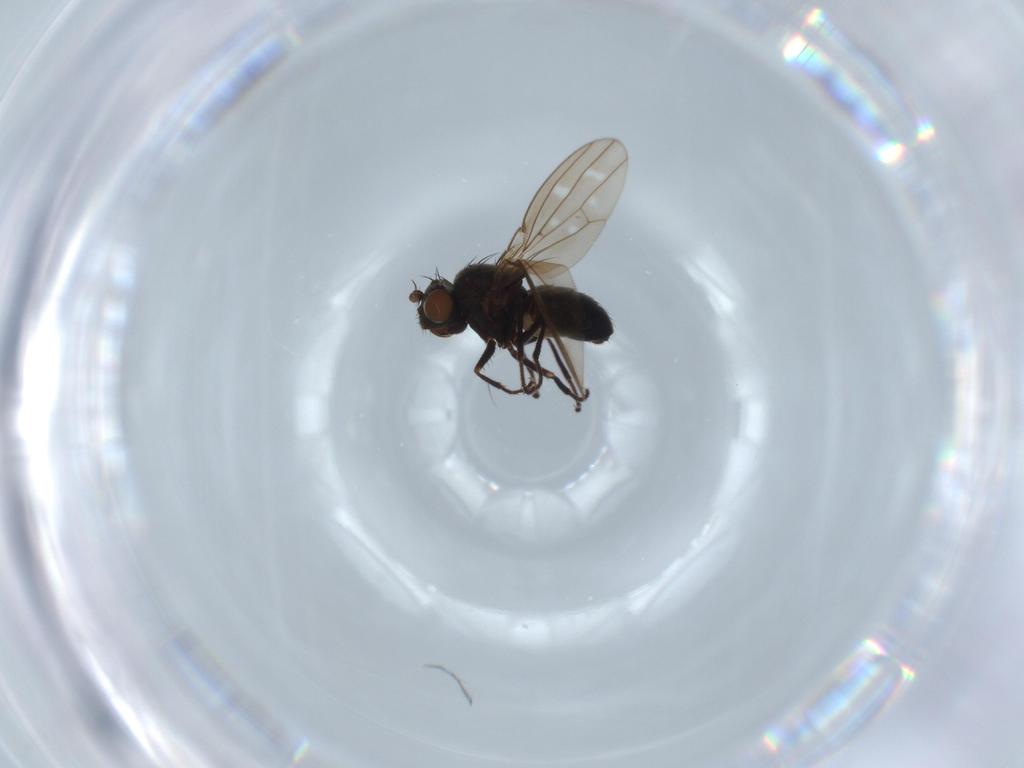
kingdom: Animalia
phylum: Arthropoda
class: Insecta
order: Diptera
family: Ephydridae
